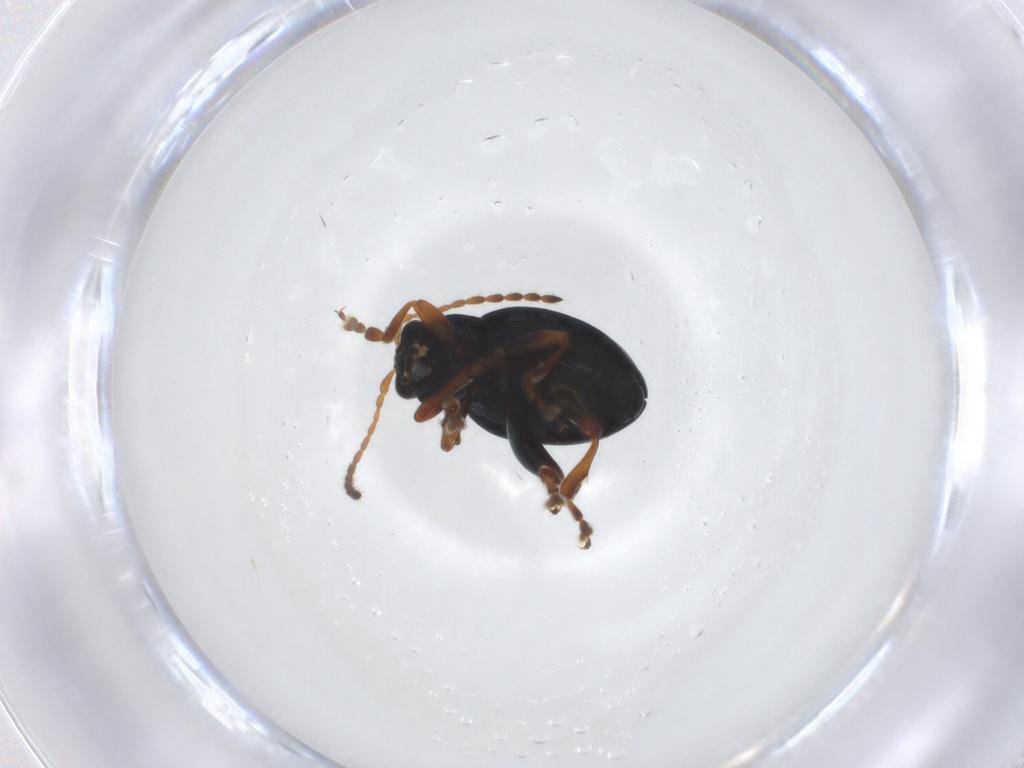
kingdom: Animalia
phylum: Arthropoda
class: Insecta
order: Coleoptera
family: Chrysomelidae
